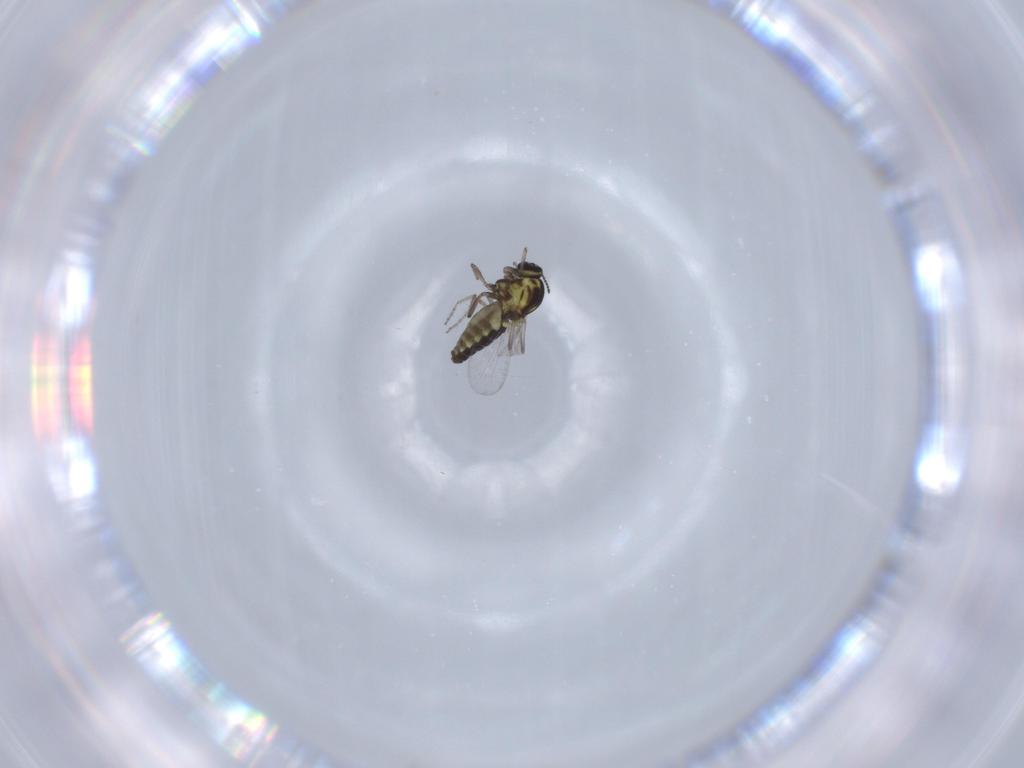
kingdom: Animalia
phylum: Arthropoda
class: Insecta
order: Diptera
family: Ceratopogonidae
